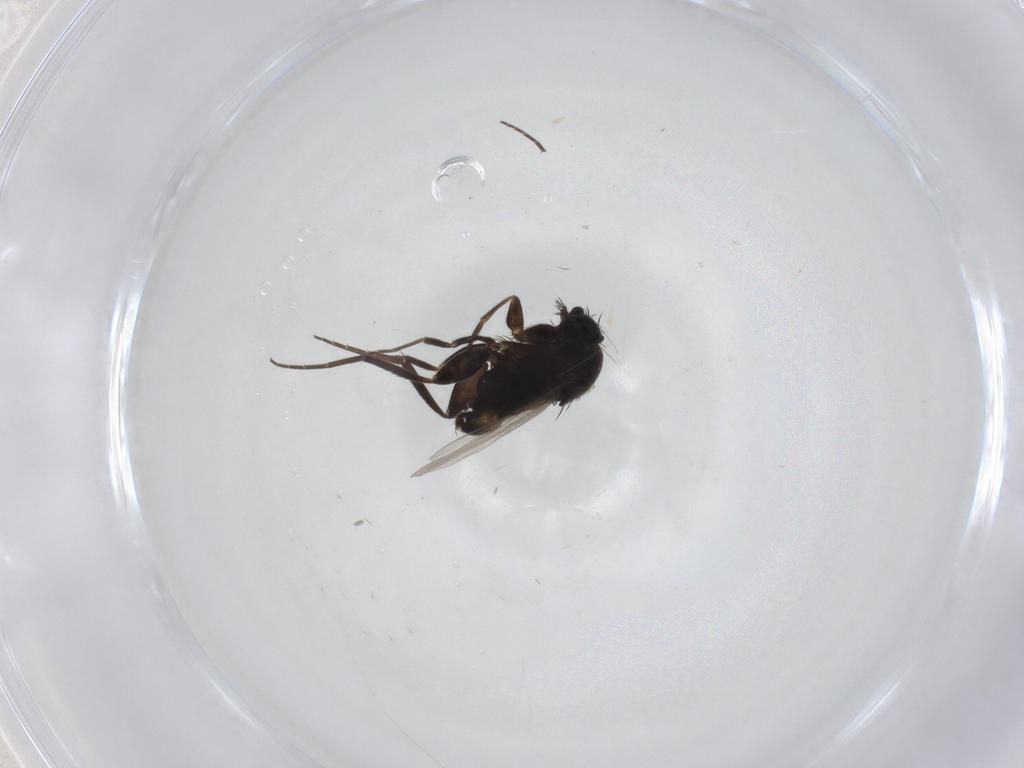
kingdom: Animalia
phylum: Arthropoda
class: Insecta
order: Diptera
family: Phoridae
